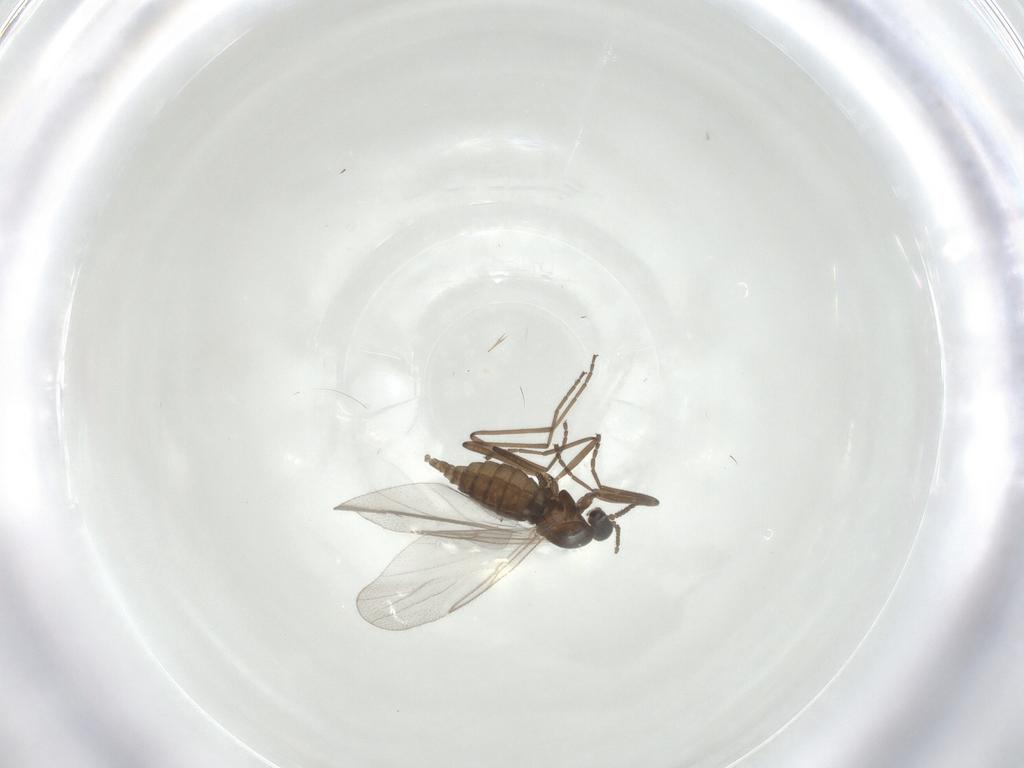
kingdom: Animalia
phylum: Arthropoda
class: Insecta
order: Diptera
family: Cecidomyiidae
